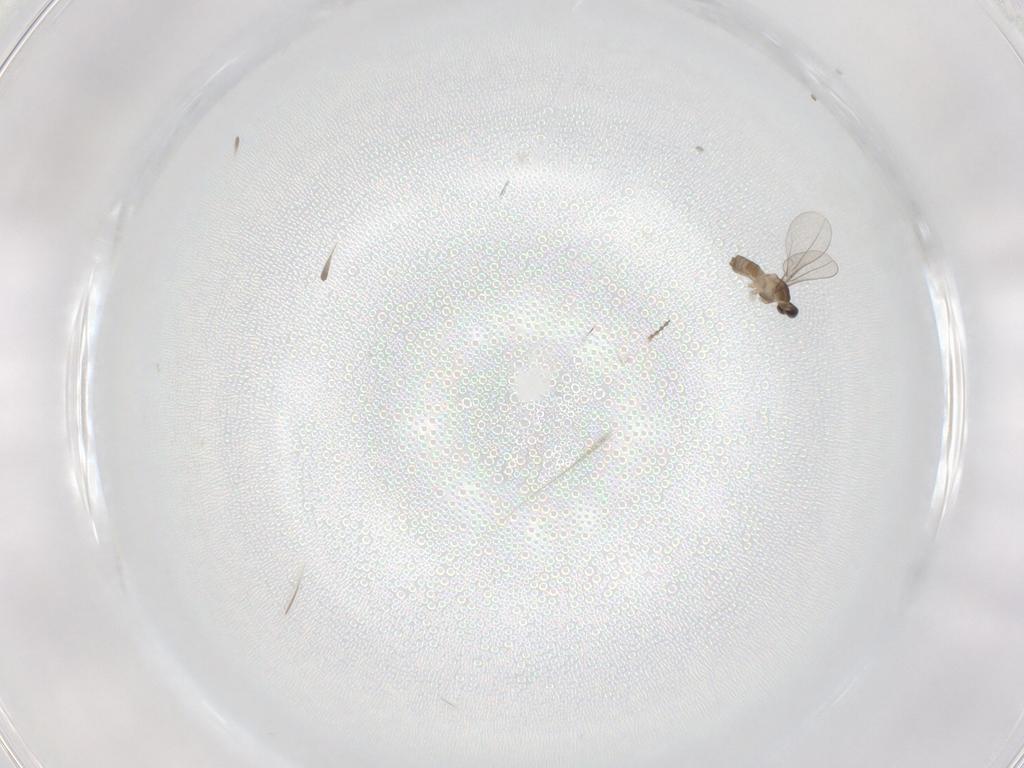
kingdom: Animalia
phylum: Arthropoda
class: Insecta
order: Diptera
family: Cecidomyiidae
